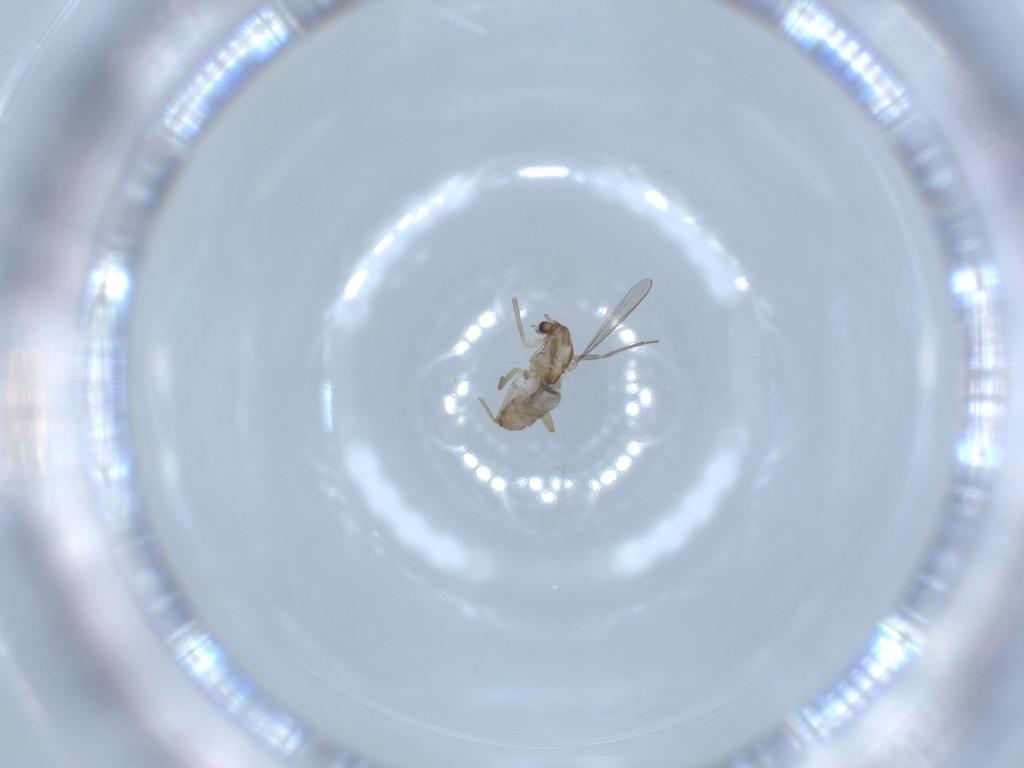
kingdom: Animalia
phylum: Arthropoda
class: Insecta
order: Diptera
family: Chironomidae
